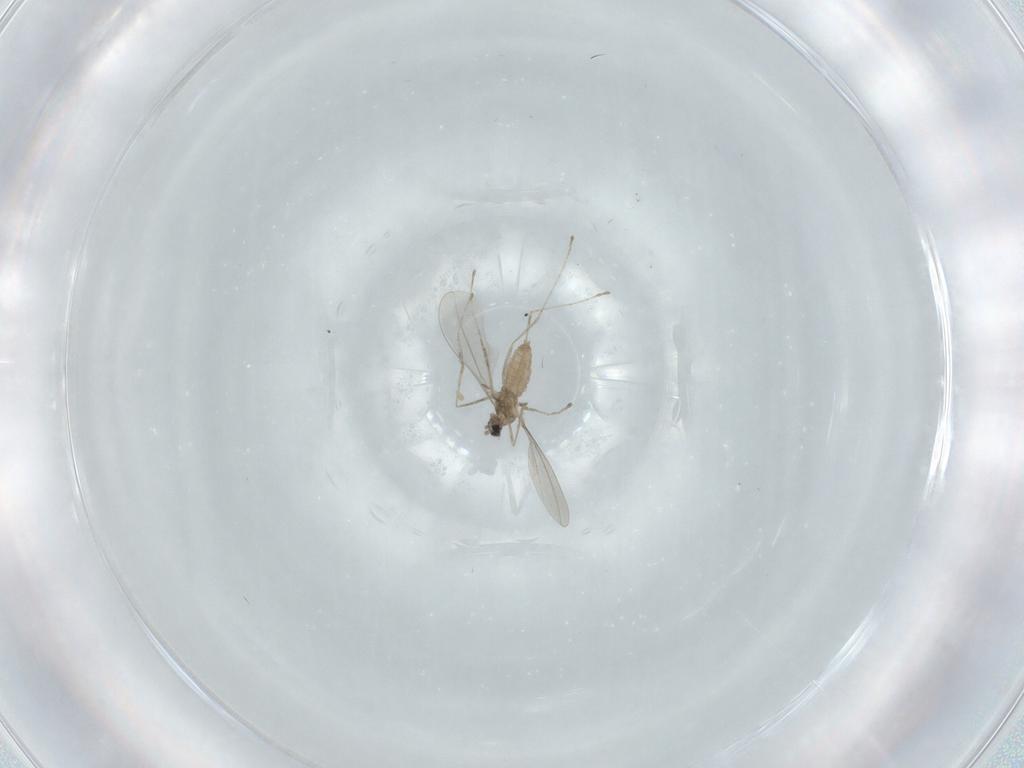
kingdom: Animalia
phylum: Arthropoda
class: Insecta
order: Diptera
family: Cecidomyiidae
